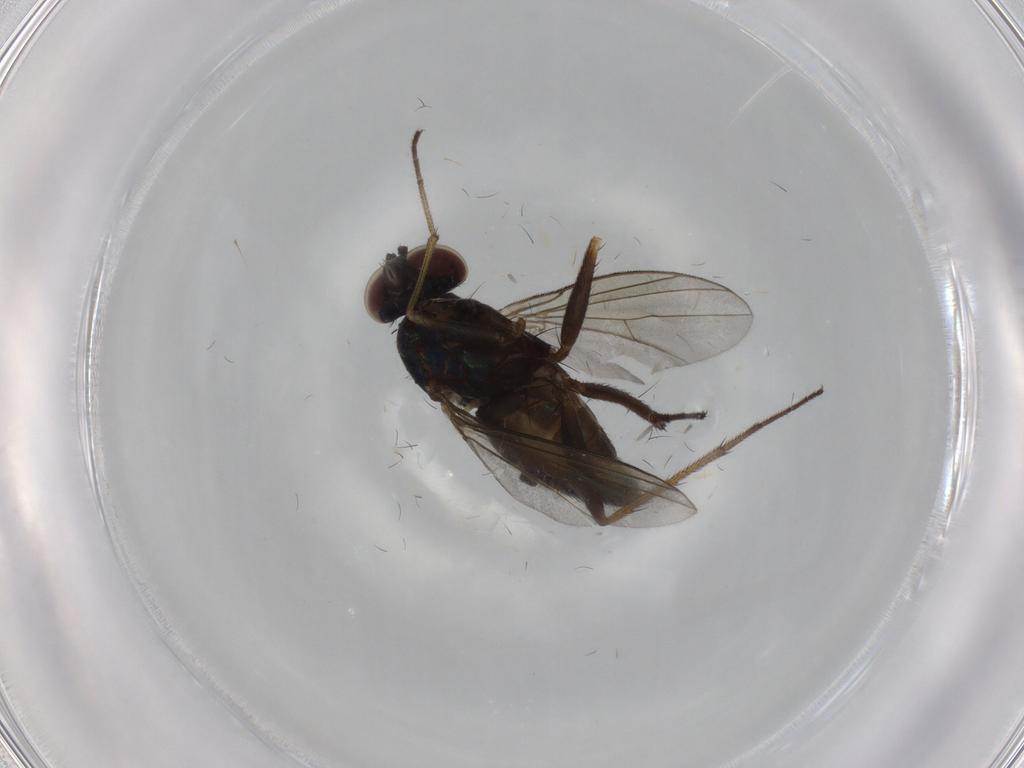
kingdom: Animalia
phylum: Arthropoda
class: Insecta
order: Diptera
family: Dolichopodidae
